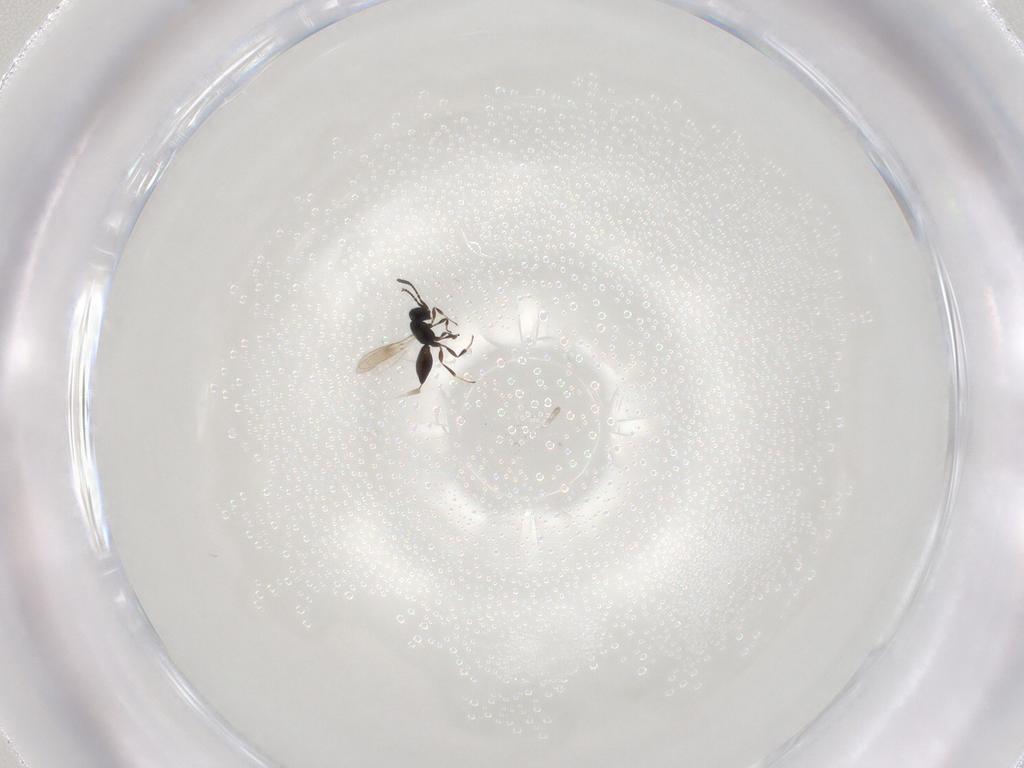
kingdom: Animalia
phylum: Arthropoda
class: Insecta
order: Hymenoptera
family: Scelionidae
